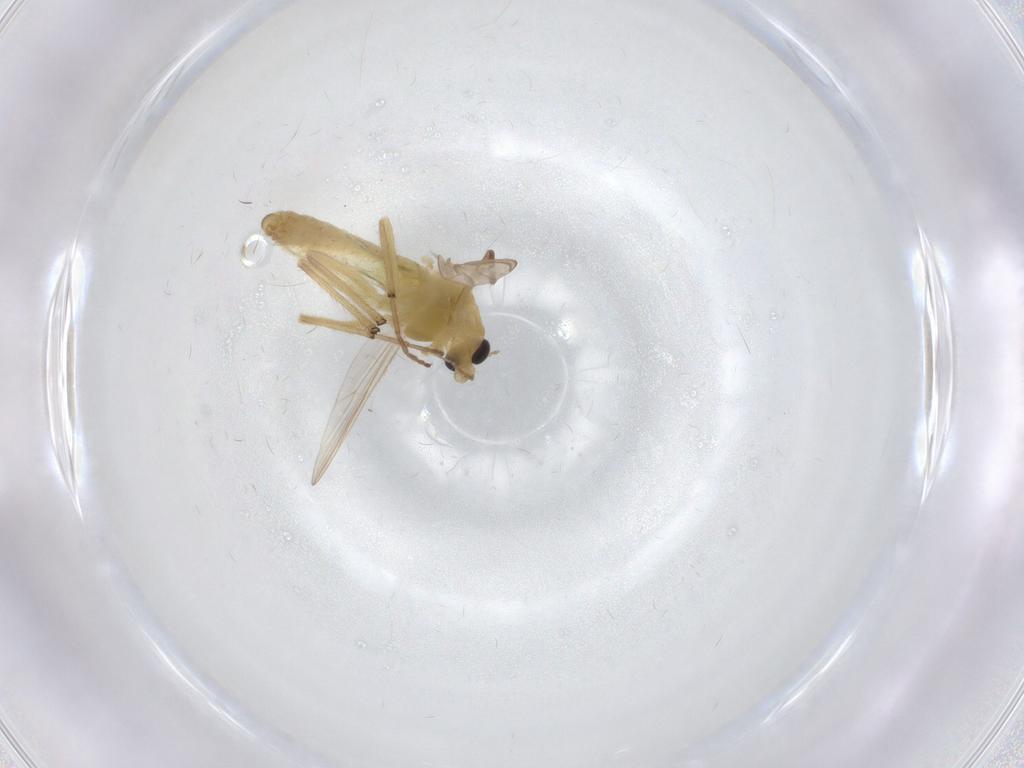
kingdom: Animalia
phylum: Arthropoda
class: Insecta
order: Diptera
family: Chironomidae
